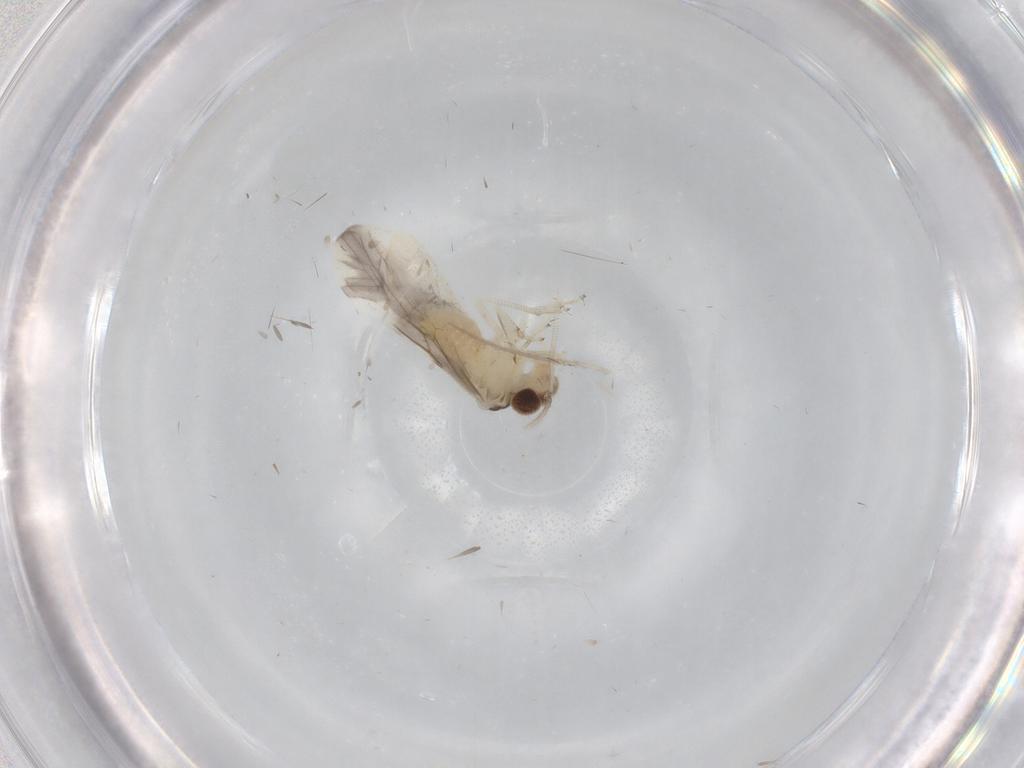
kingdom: Animalia
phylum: Arthropoda
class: Insecta
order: Psocodea
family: Caeciliusidae
